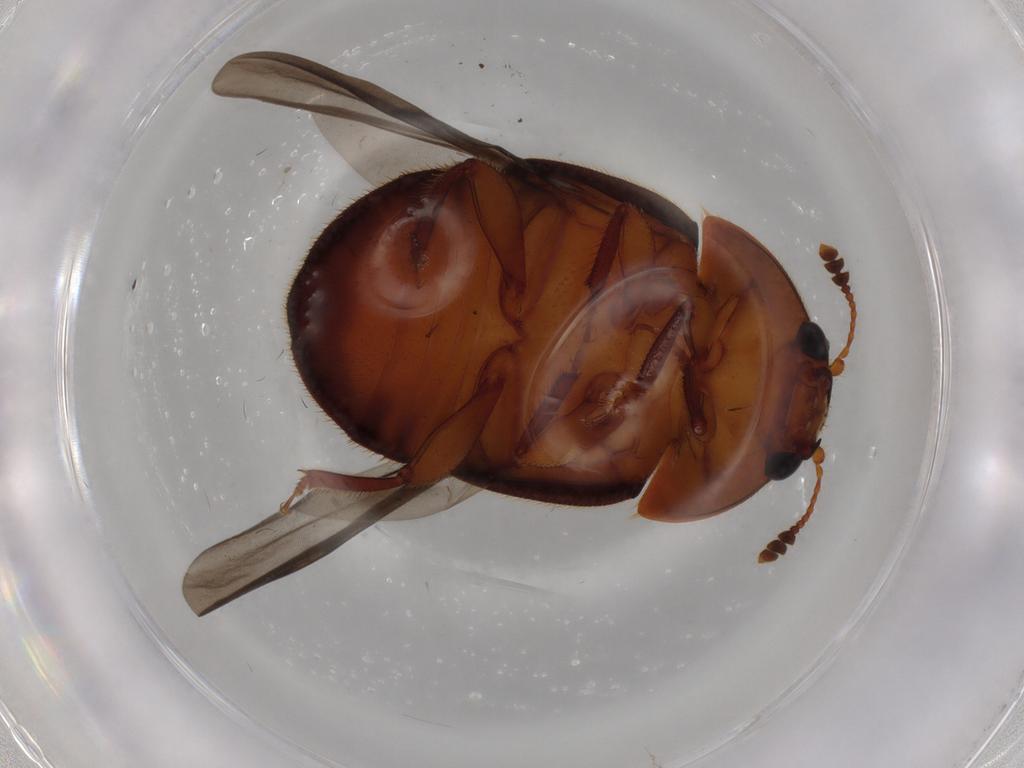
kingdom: Animalia
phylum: Arthropoda
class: Insecta
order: Coleoptera
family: Nitidulidae
